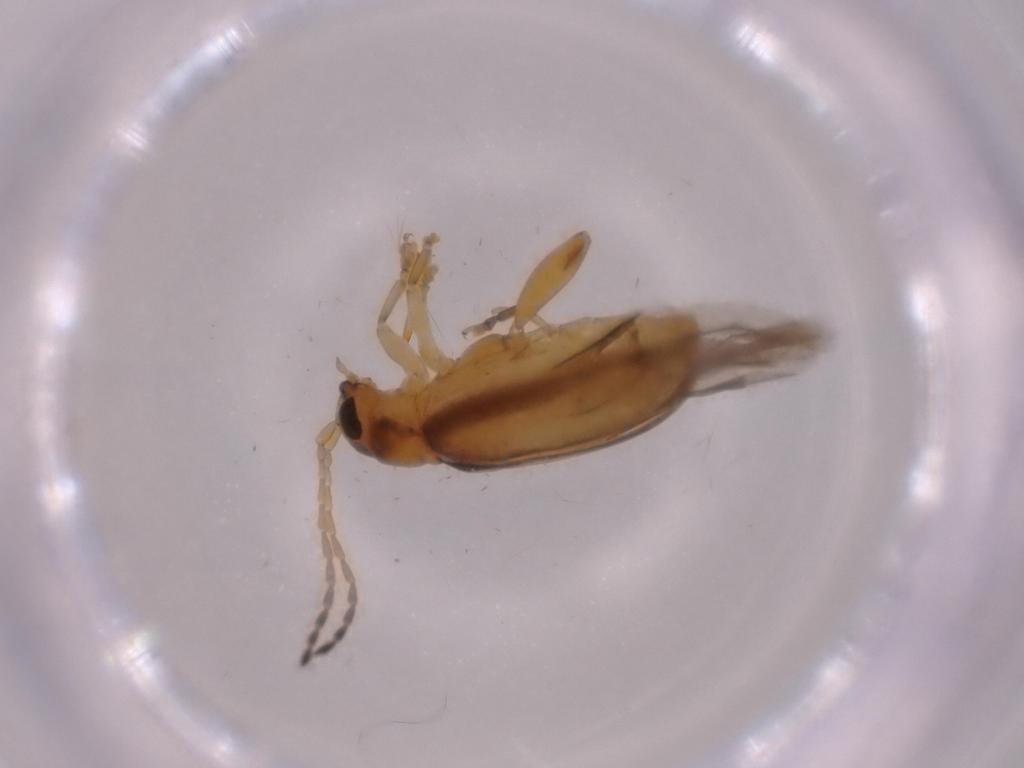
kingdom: Animalia
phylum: Arthropoda
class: Insecta
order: Coleoptera
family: Chrysomelidae
